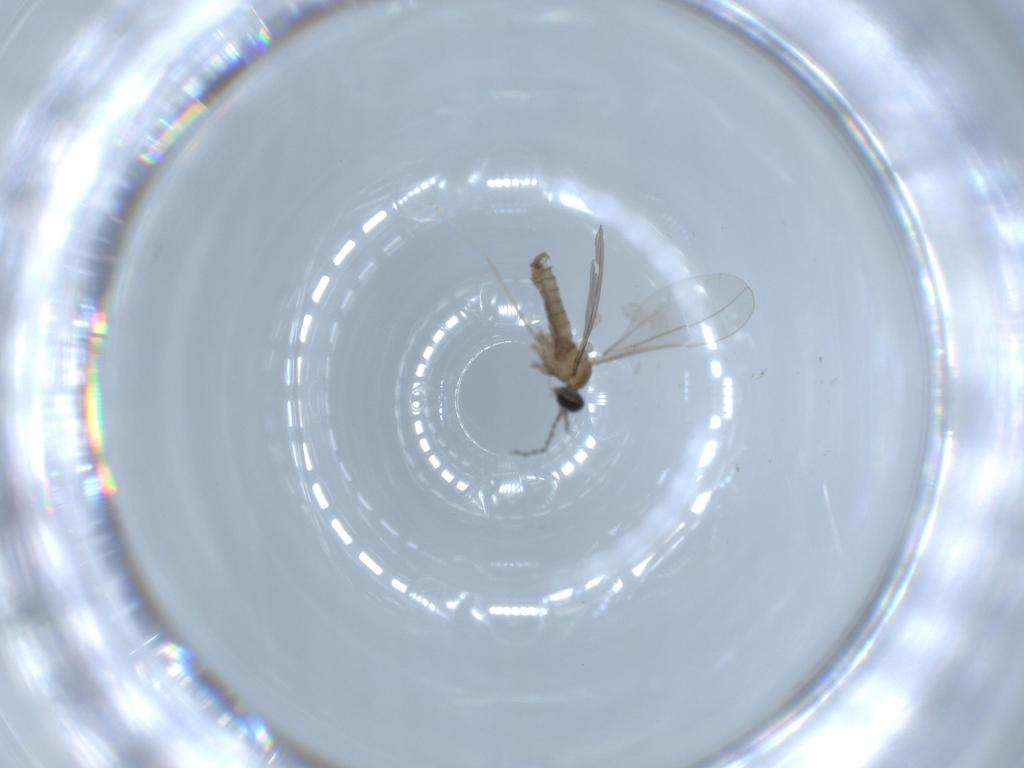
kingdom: Animalia
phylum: Arthropoda
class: Insecta
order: Diptera
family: Cecidomyiidae
